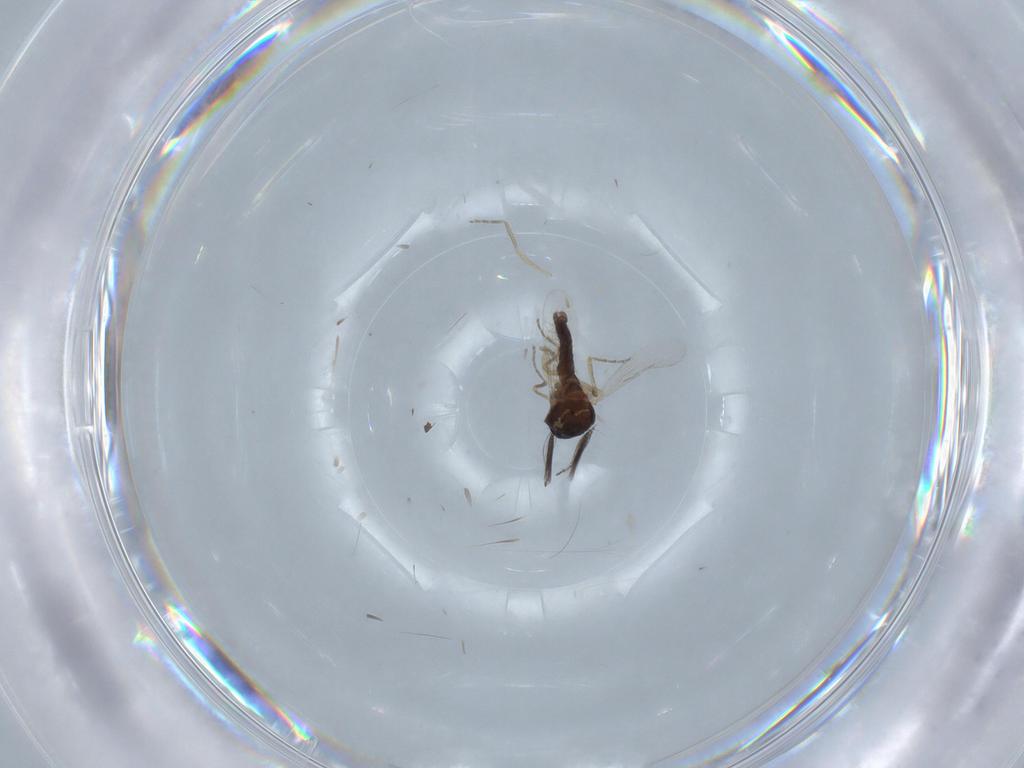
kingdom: Animalia
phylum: Arthropoda
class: Insecta
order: Diptera
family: Ceratopogonidae
